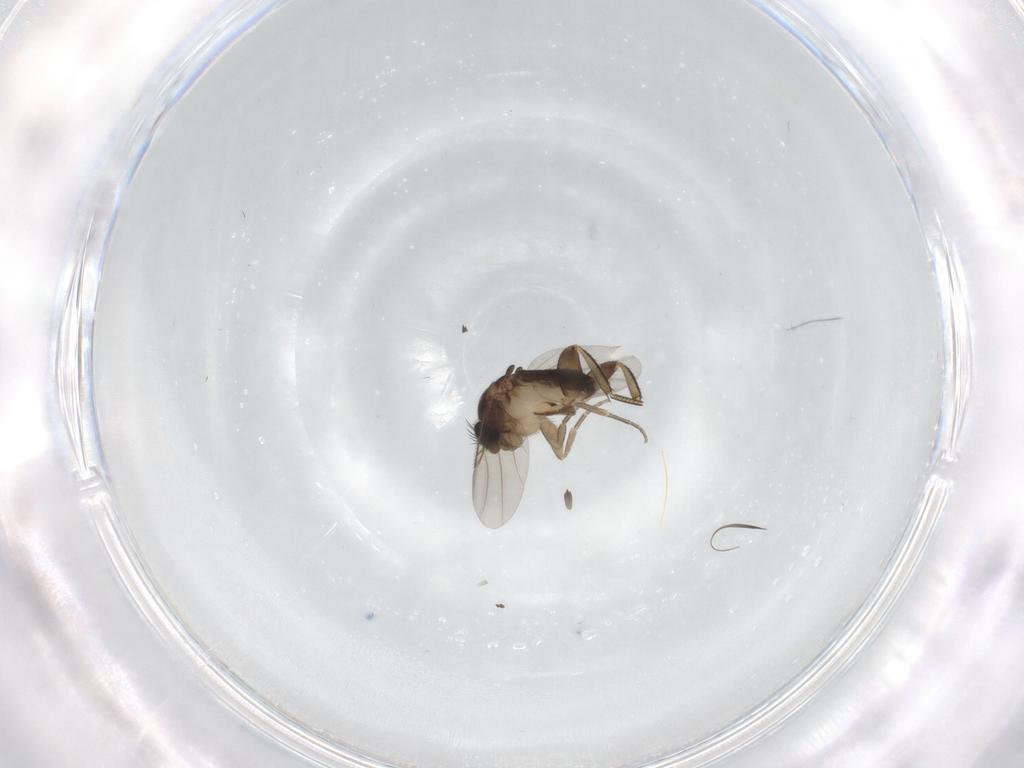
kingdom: Animalia
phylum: Arthropoda
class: Insecta
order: Diptera
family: Phoridae
